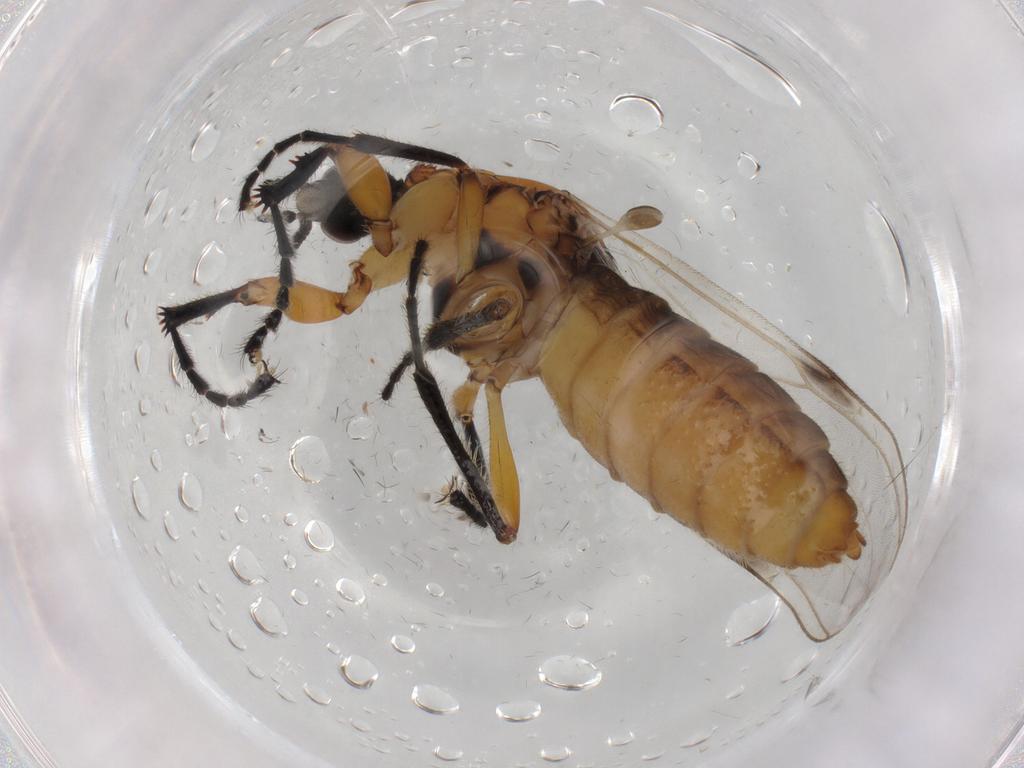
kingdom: Animalia
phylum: Arthropoda
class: Insecta
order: Diptera
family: Bibionidae
